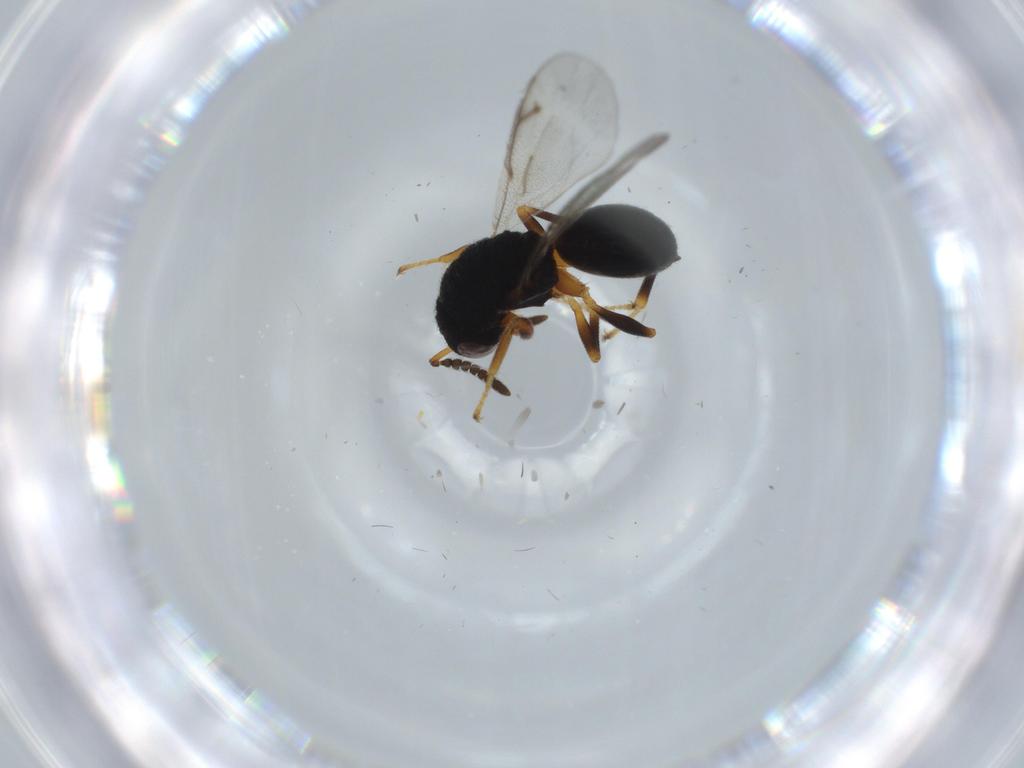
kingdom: Animalia
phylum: Arthropoda
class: Insecta
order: Hymenoptera
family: Eurytomidae
